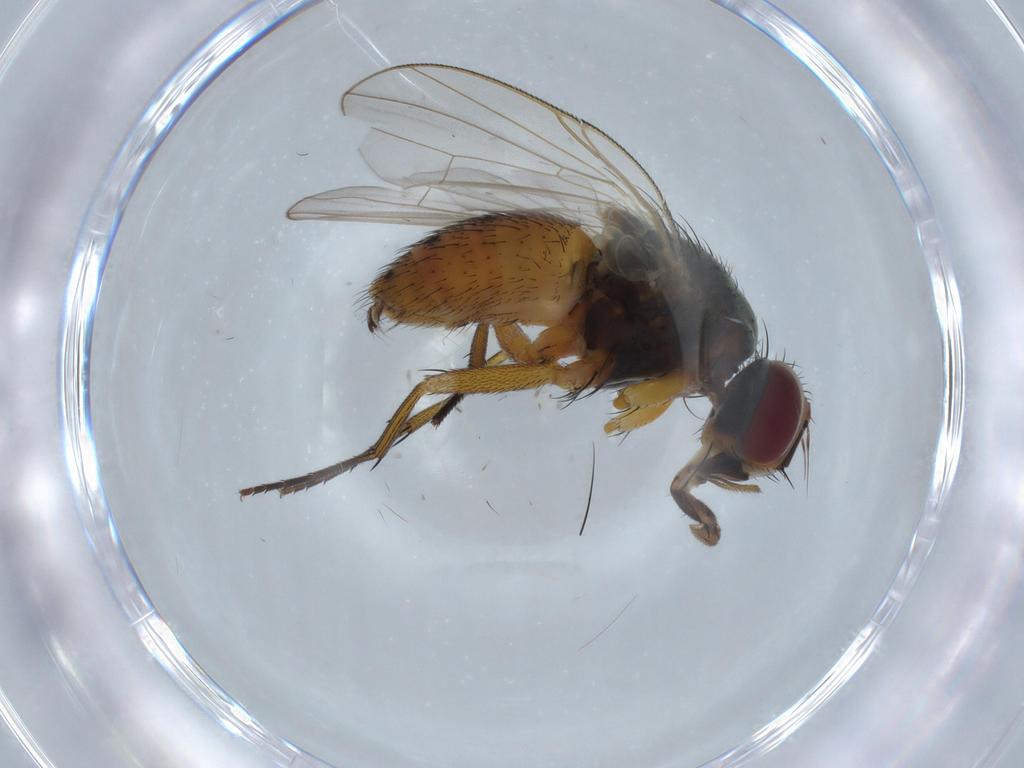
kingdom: Animalia
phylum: Arthropoda
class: Insecta
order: Diptera
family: Muscidae
